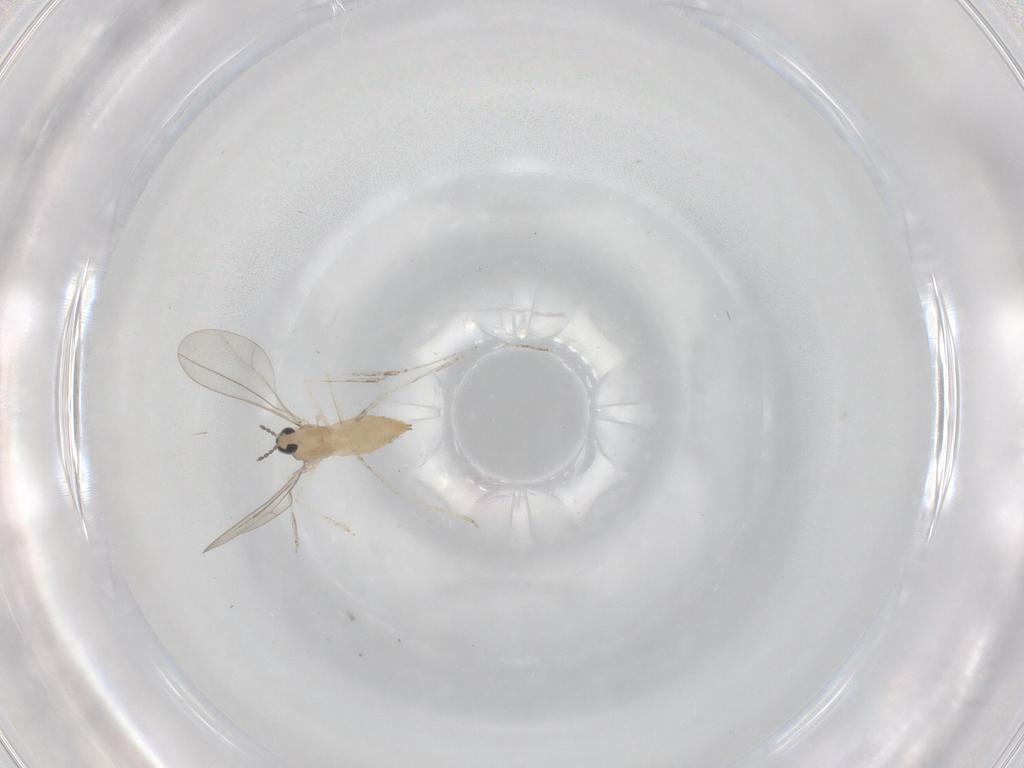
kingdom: Animalia
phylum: Arthropoda
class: Insecta
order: Diptera
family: Cecidomyiidae
